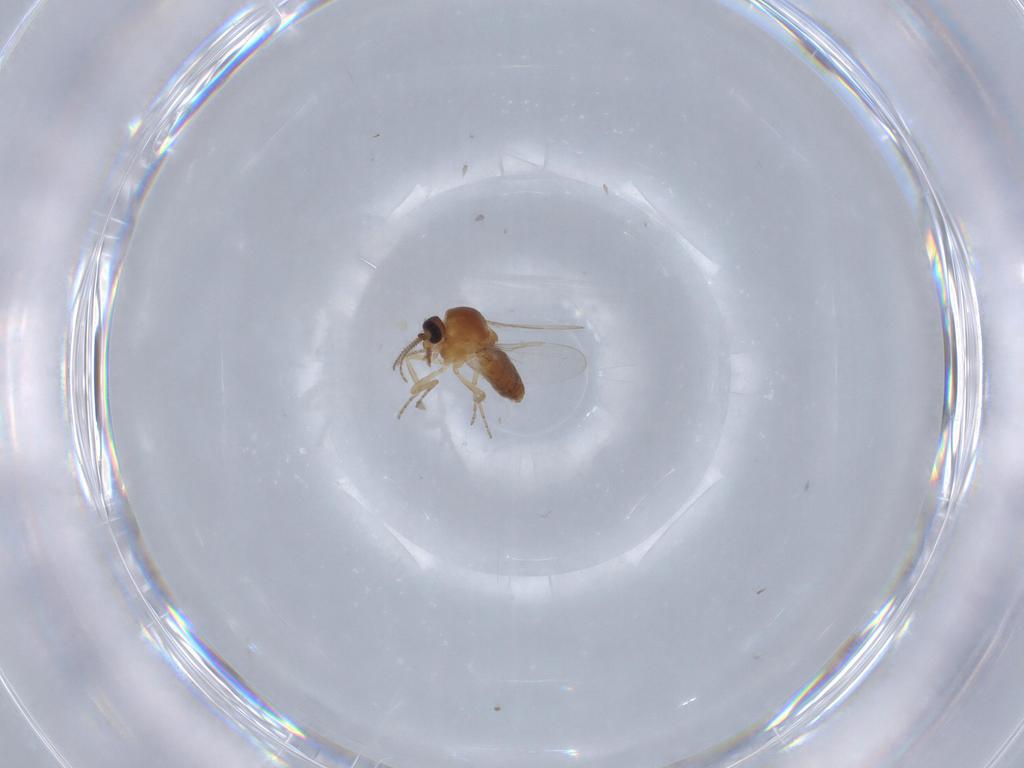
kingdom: Animalia
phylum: Arthropoda
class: Insecta
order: Diptera
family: Ceratopogonidae
